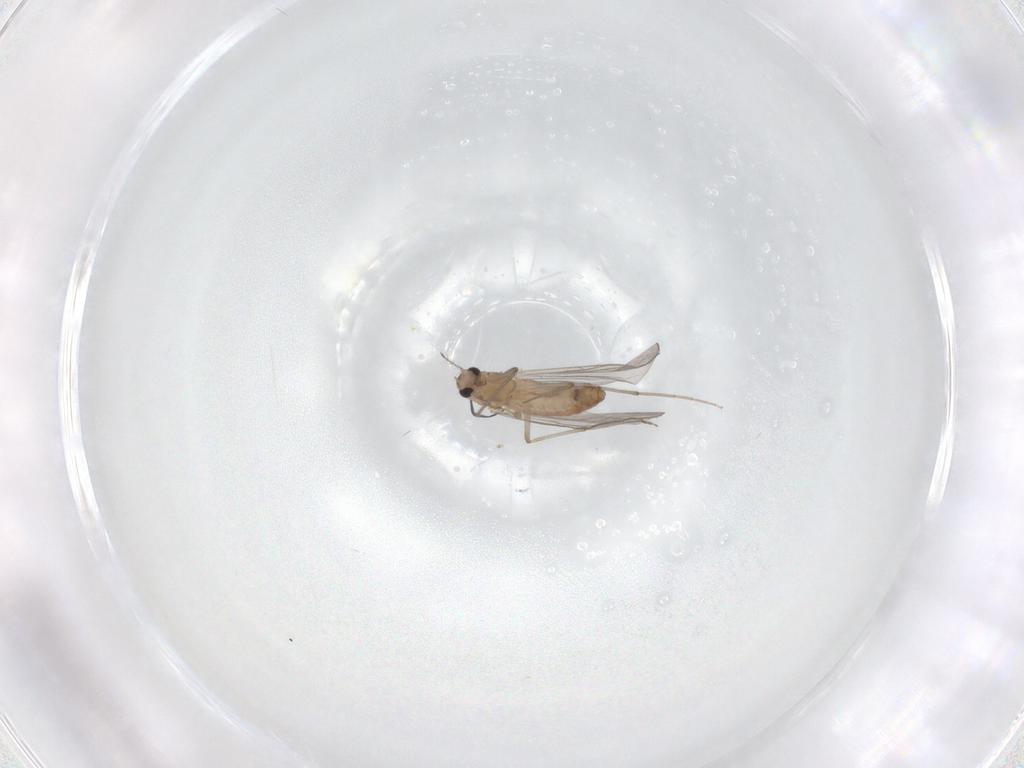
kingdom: Animalia
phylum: Arthropoda
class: Insecta
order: Diptera
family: Chironomidae
